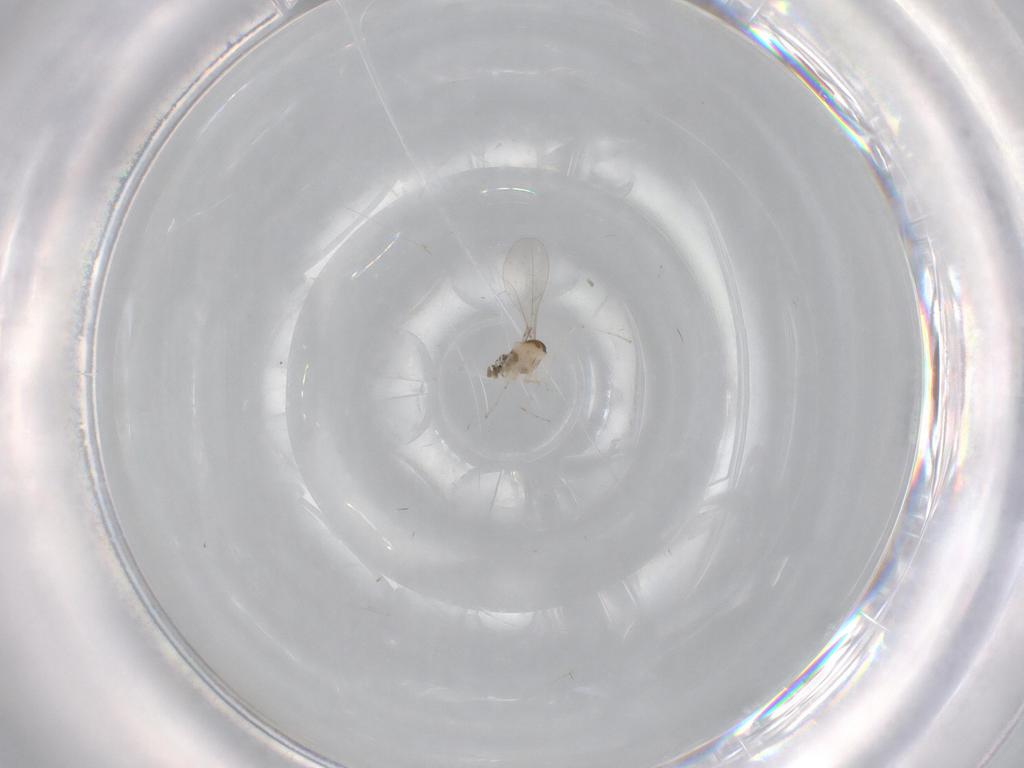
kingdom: Animalia
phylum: Arthropoda
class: Insecta
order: Diptera
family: Cecidomyiidae
